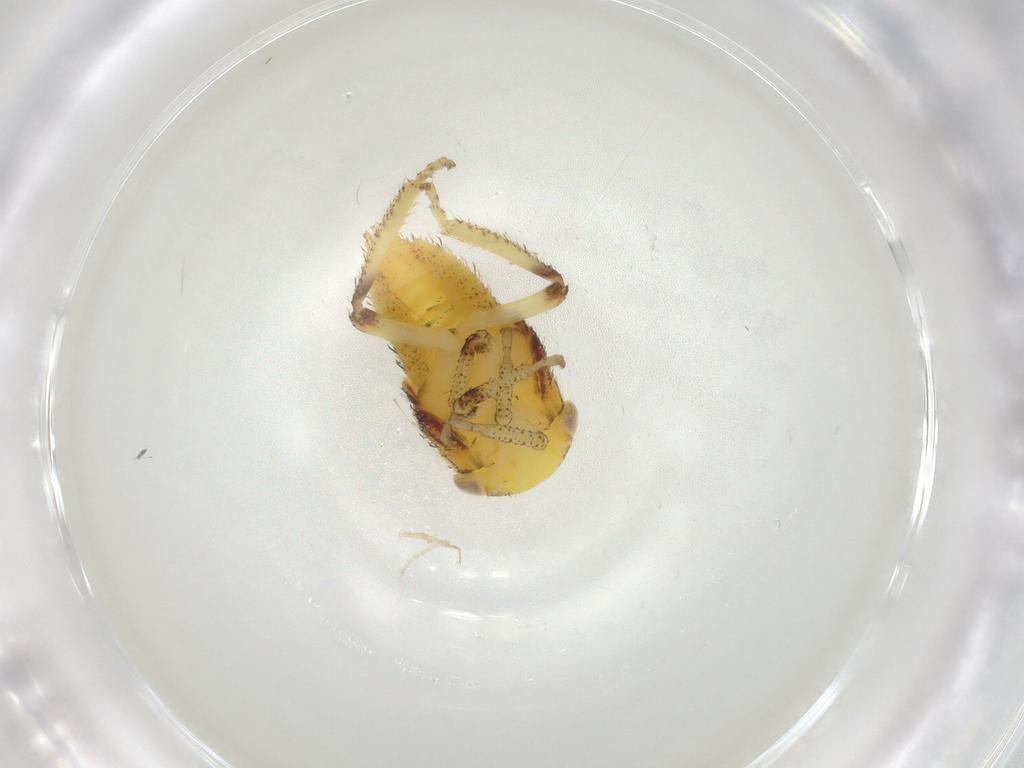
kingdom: Animalia
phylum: Arthropoda
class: Insecta
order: Hemiptera
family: Cicadellidae
